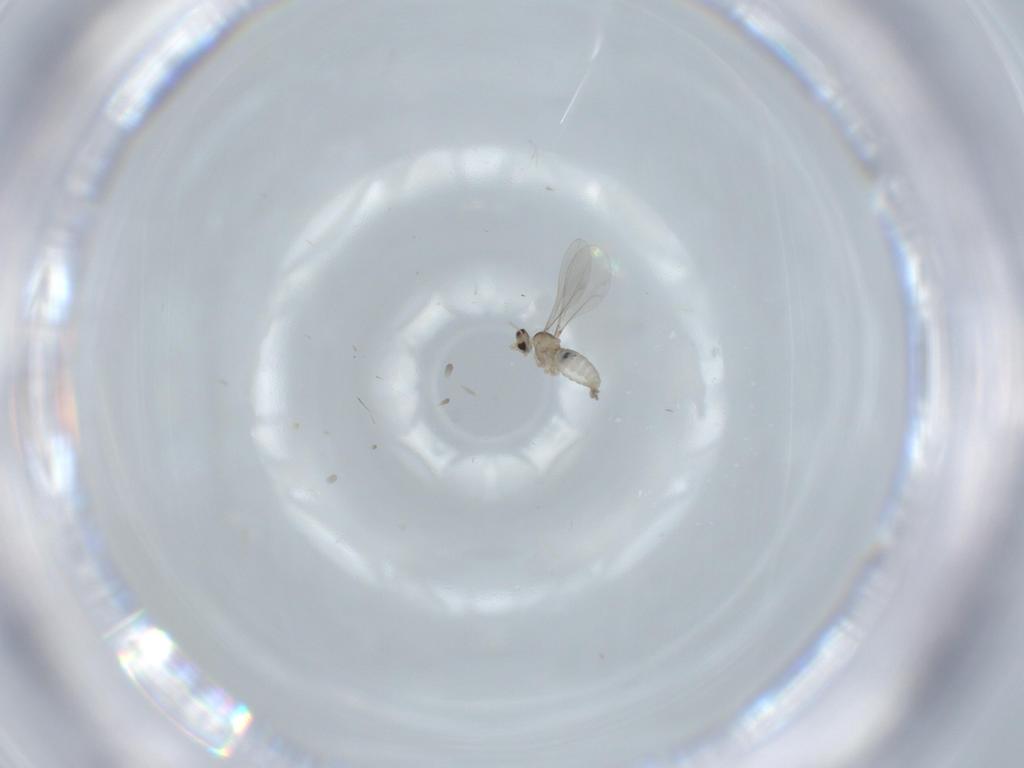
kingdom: Animalia
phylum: Arthropoda
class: Insecta
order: Diptera
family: Cecidomyiidae
